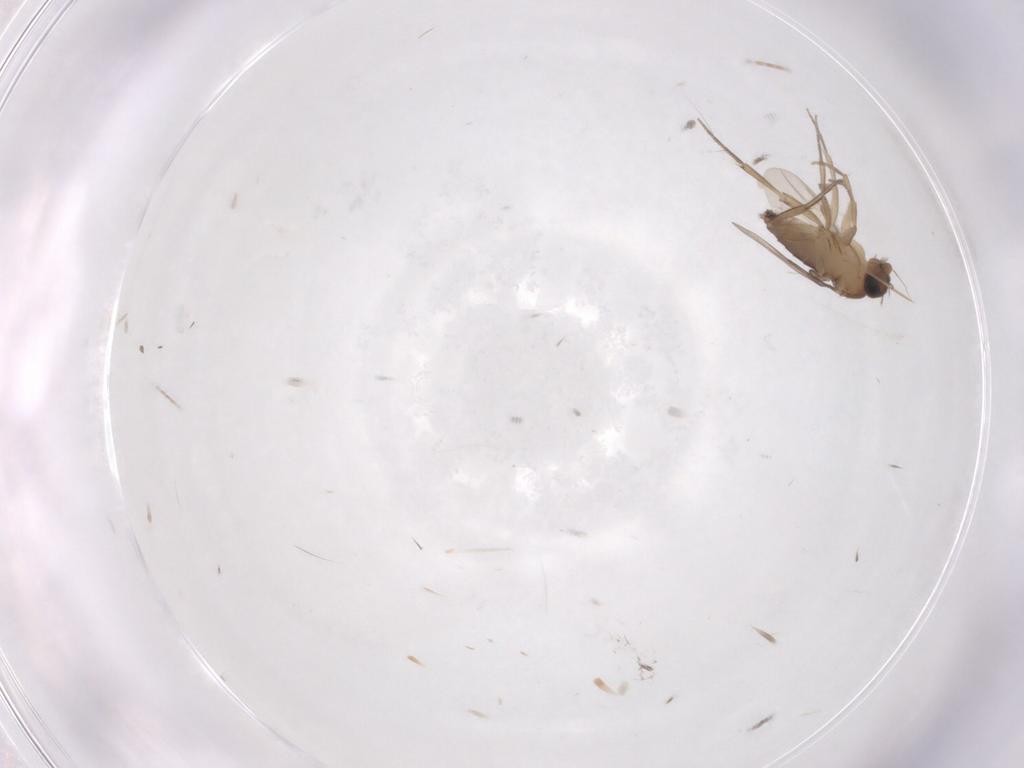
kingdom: Animalia
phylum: Arthropoda
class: Insecta
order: Diptera
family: Phoridae
